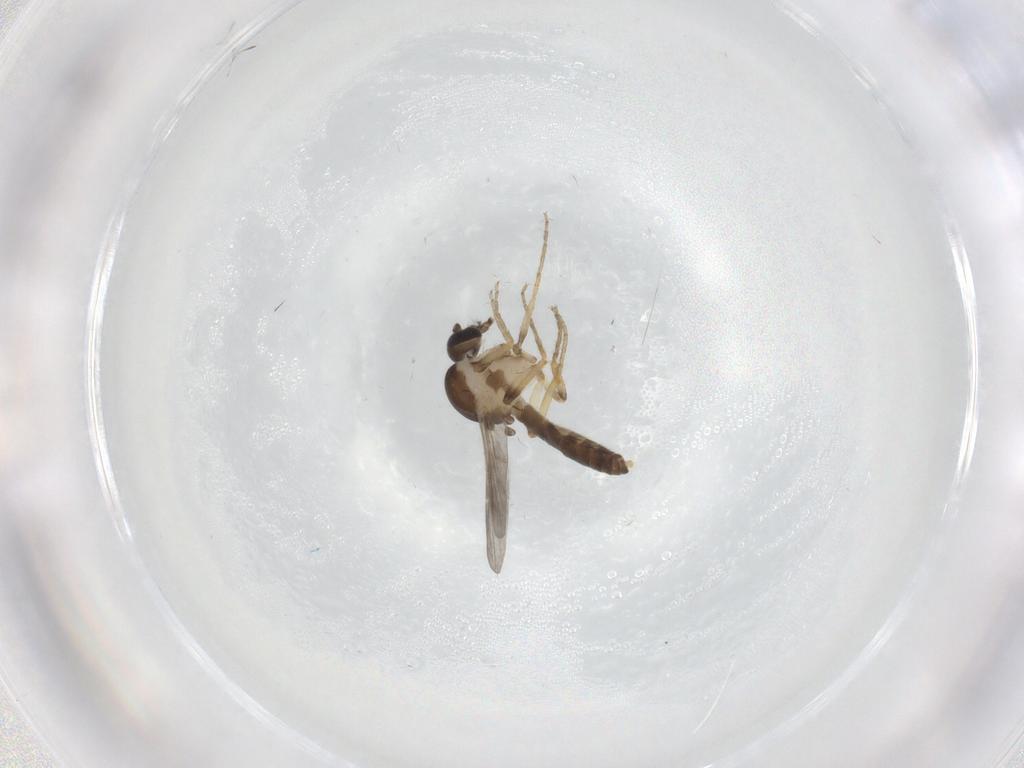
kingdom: Animalia
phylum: Arthropoda
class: Insecta
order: Diptera
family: Ceratopogonidae
